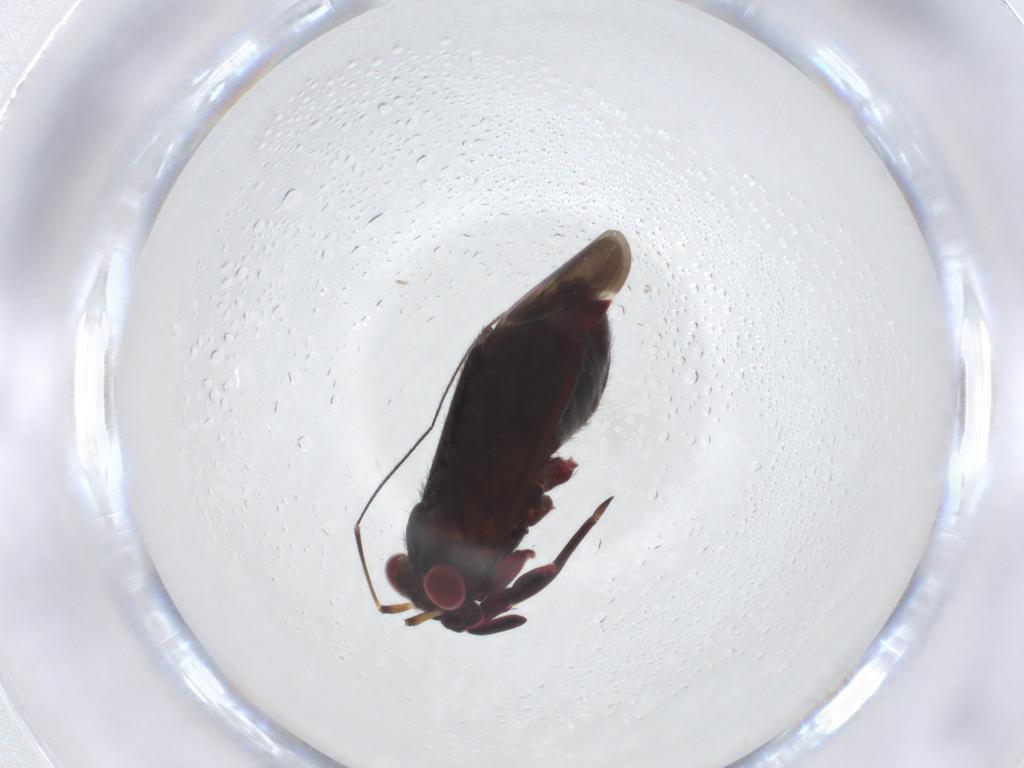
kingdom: Animalia
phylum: Arthropoda
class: Insecta
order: Hemiptera
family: Miridae
